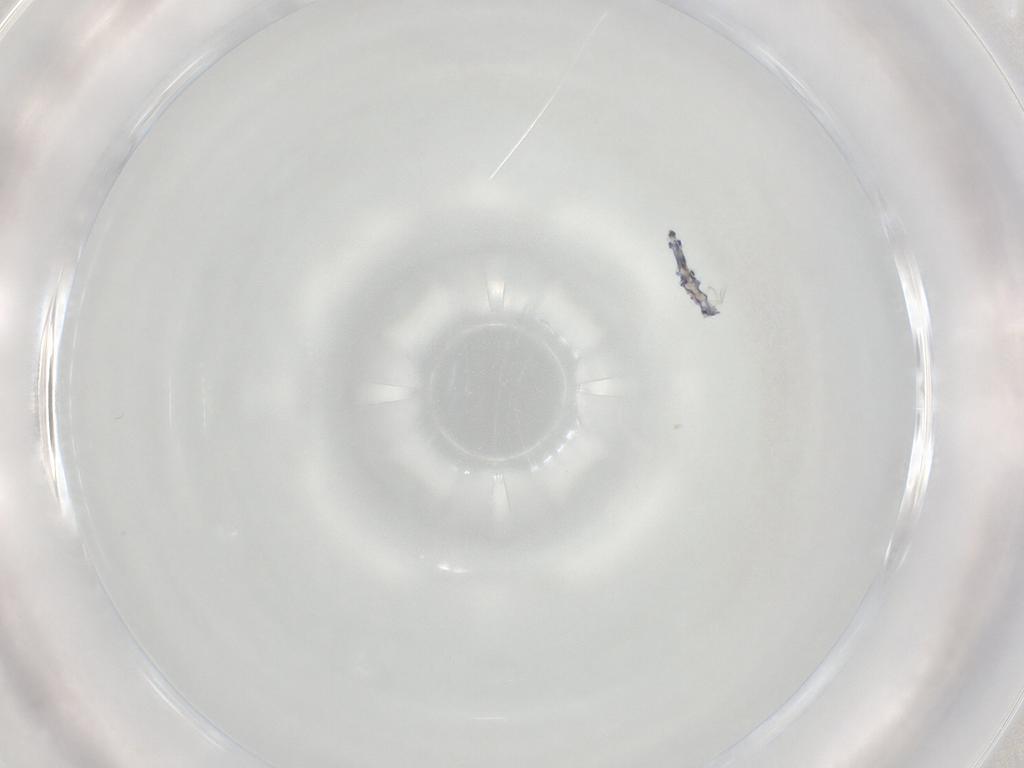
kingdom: Animalia
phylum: Arthropoda
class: Collembola
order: Entomobryomorpha
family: Entomobryidae
